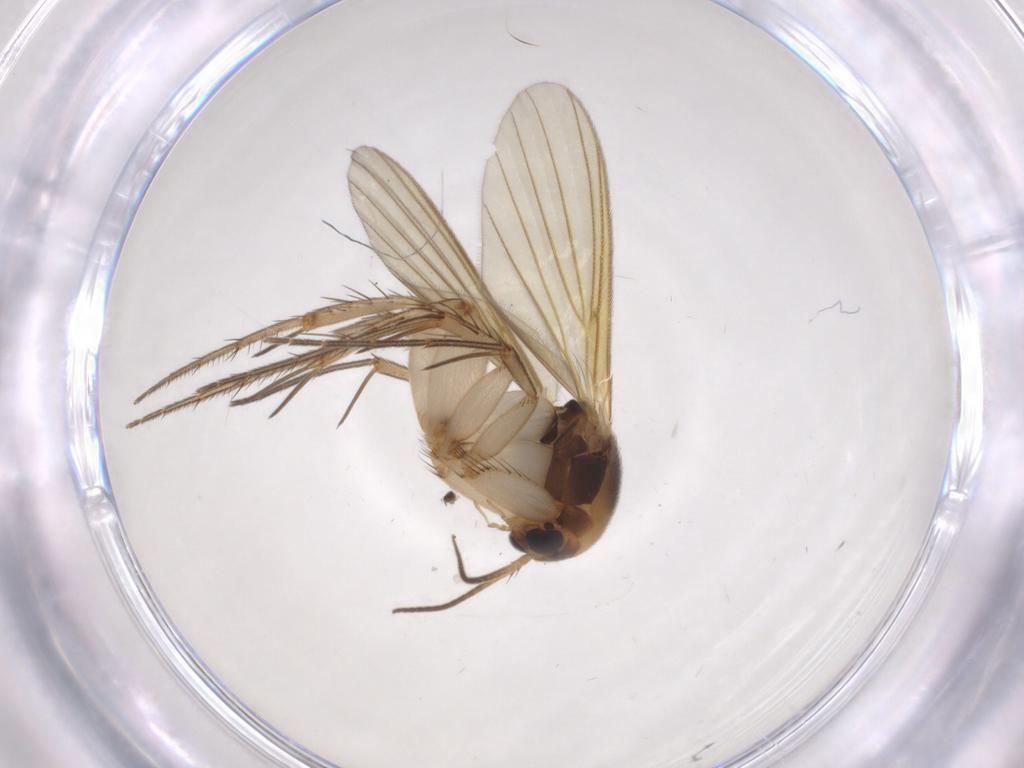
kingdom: Animalia
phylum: Arthropoda
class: Insecta
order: Diptera
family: Mycetophilidae
